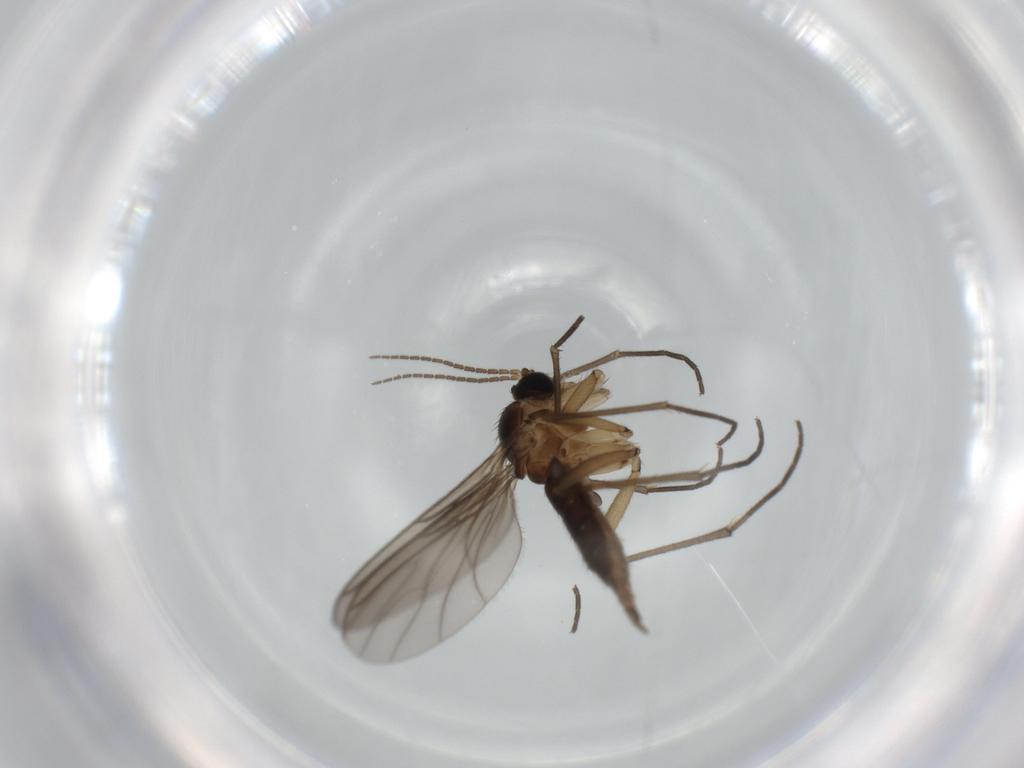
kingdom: Animalia
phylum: Arthropoda
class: Insecta
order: Diptera
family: Sciaridae
